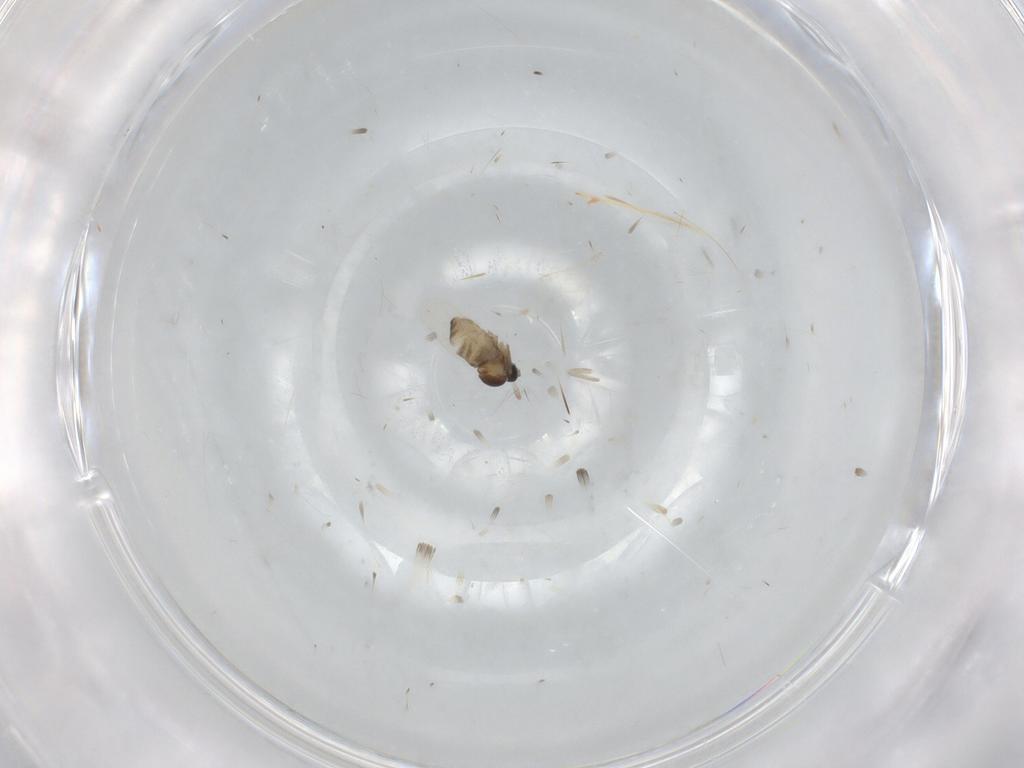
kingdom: Animalia
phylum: Arthropoda
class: Insecta
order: Diptera
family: Cecidomyiidae
